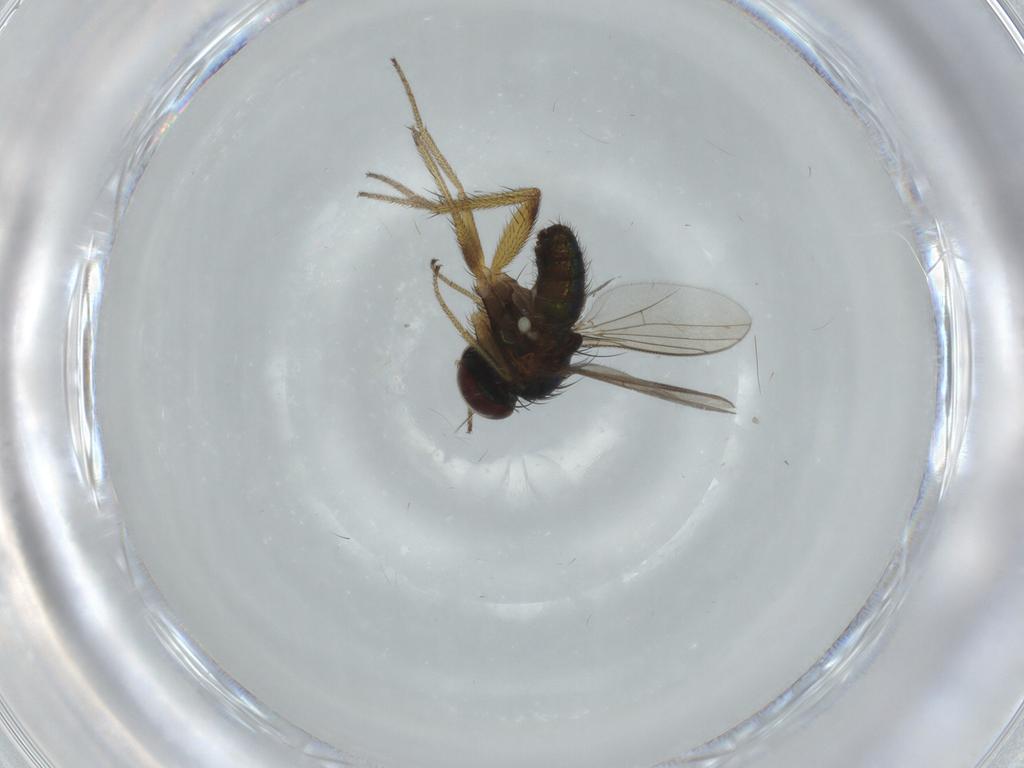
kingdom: Animalia
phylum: Arthropoda
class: Insecta
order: Diptera
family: Dolichopodidae
